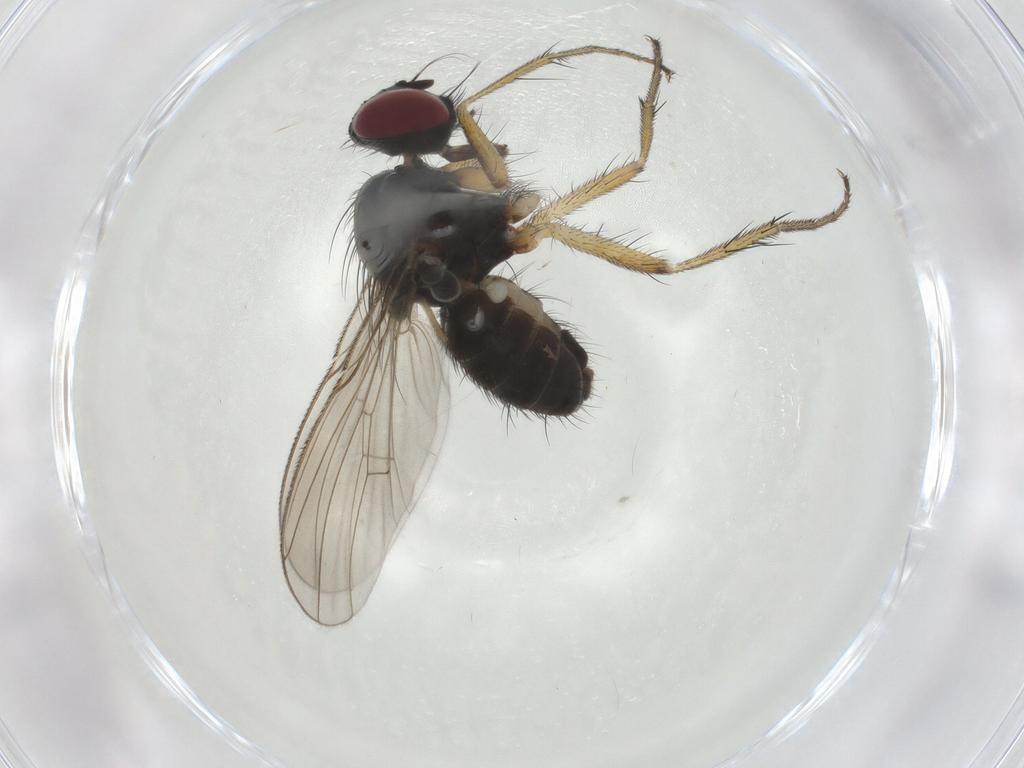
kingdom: Animalia
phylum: Arthropoda
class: Insecta
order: Diptera
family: Muscidae
